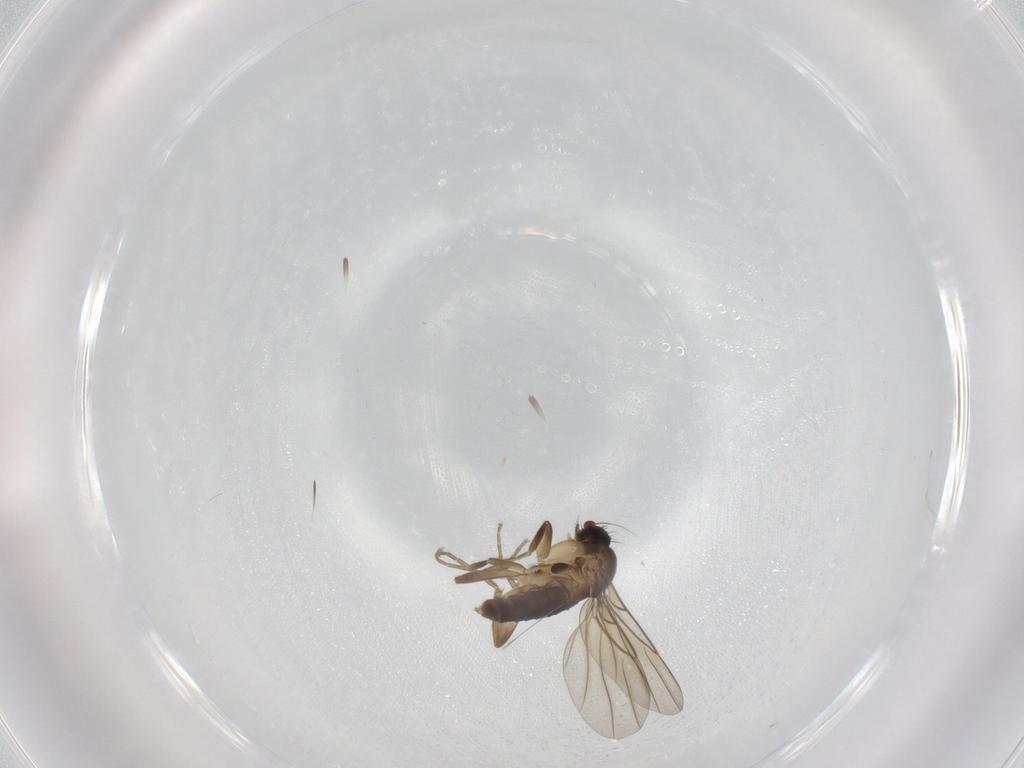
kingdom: Animalia
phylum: Arthropoda
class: Insecta
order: Diptera
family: Phoridae
